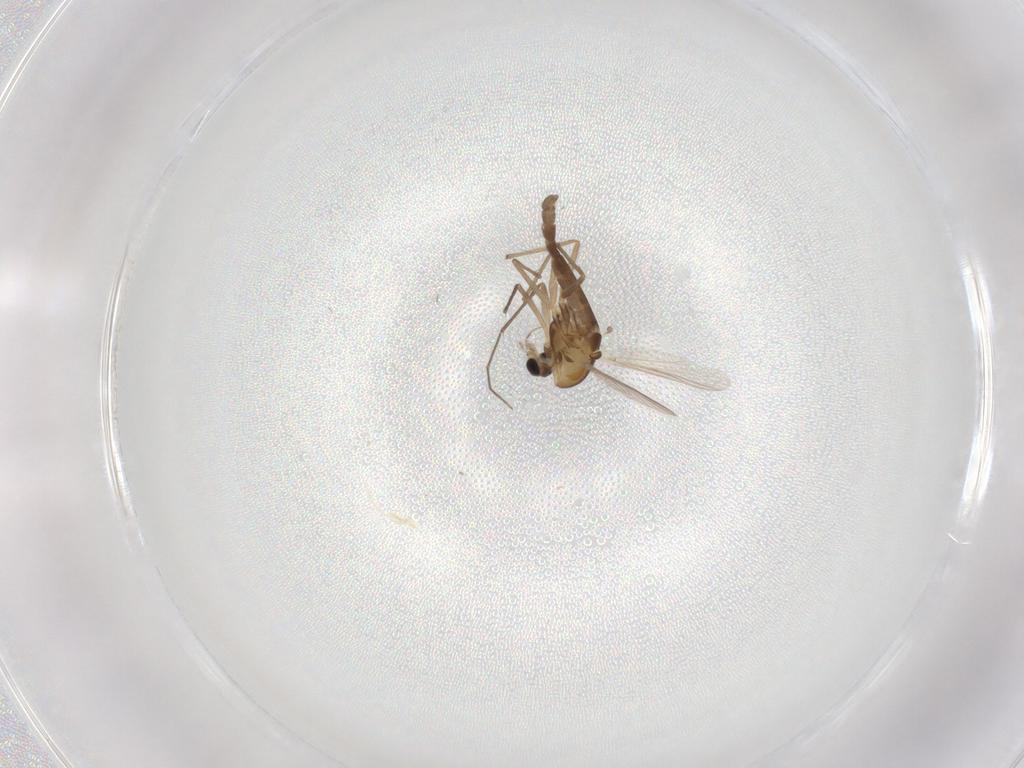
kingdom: Animalia
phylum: Arthropoda
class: Insecta
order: Diptera
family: Chironomidae
